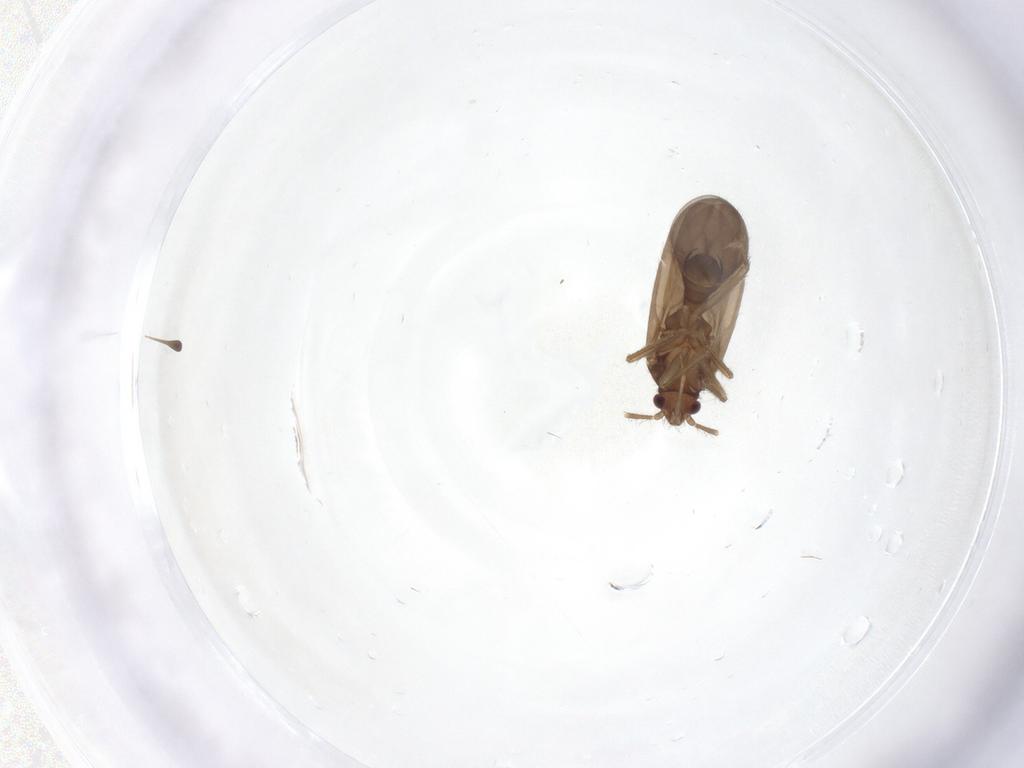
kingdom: Animalia
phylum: Arthropoda
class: Insecta
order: Hemiptera
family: Ceratocombidae
